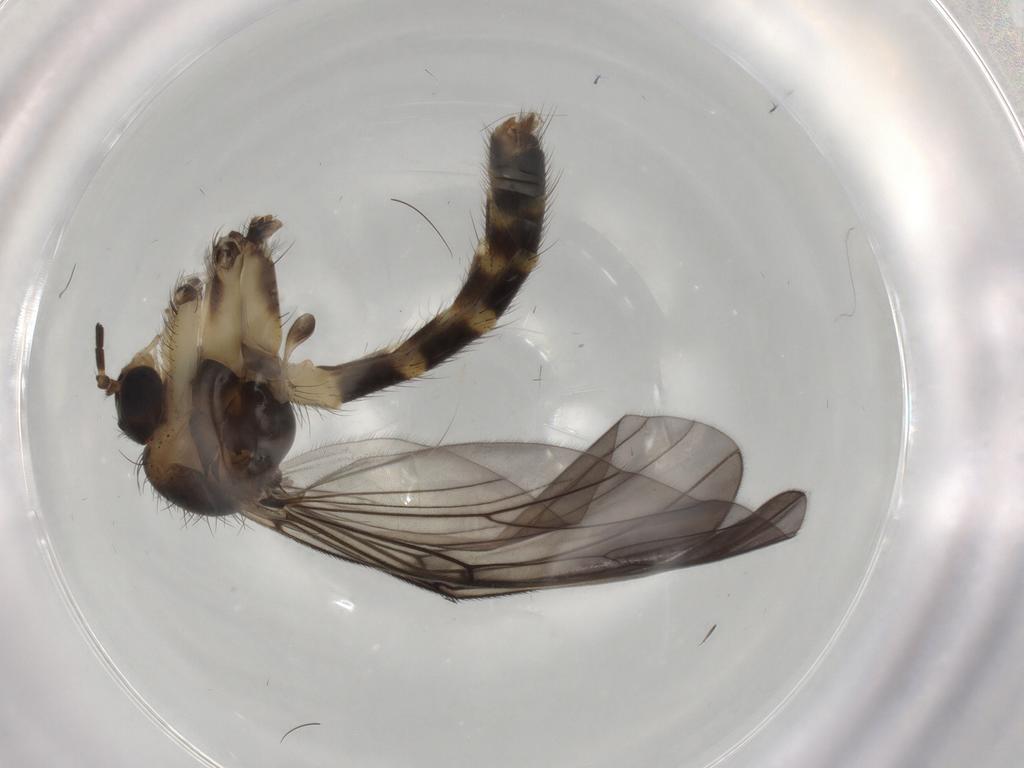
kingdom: Animalia
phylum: Arthropoda
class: Insecta
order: Diptera
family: Mycetophilidae
